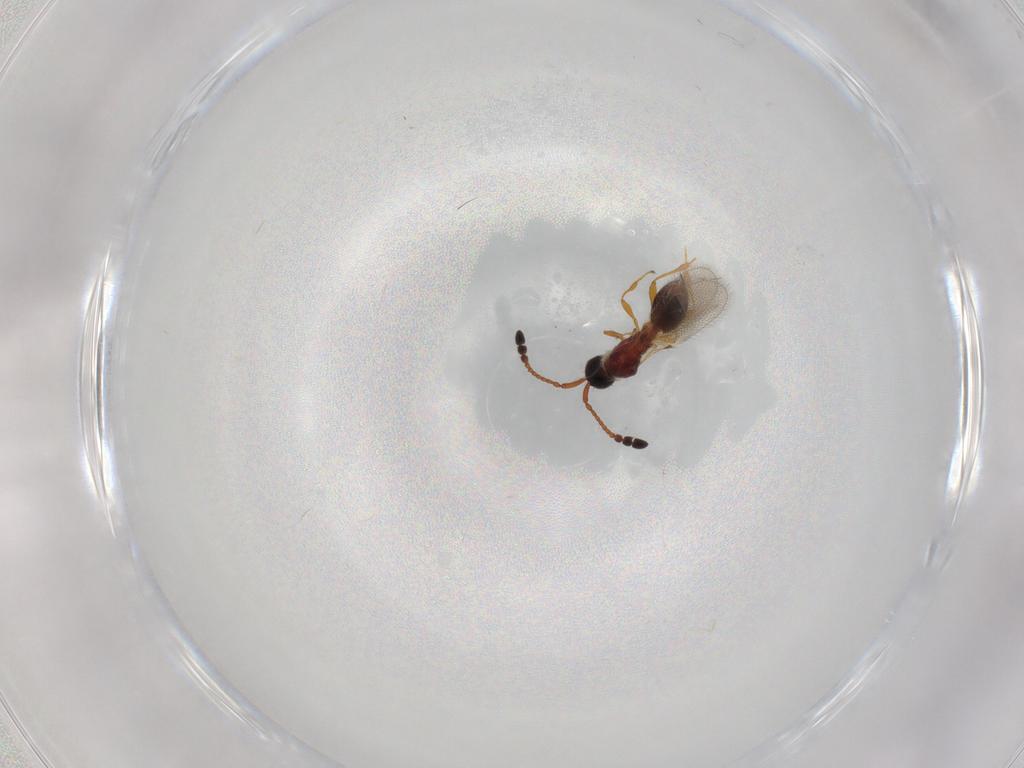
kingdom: Animalia
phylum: Arthropoda
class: Insecta
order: Hymenoptera
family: Diapriidae
